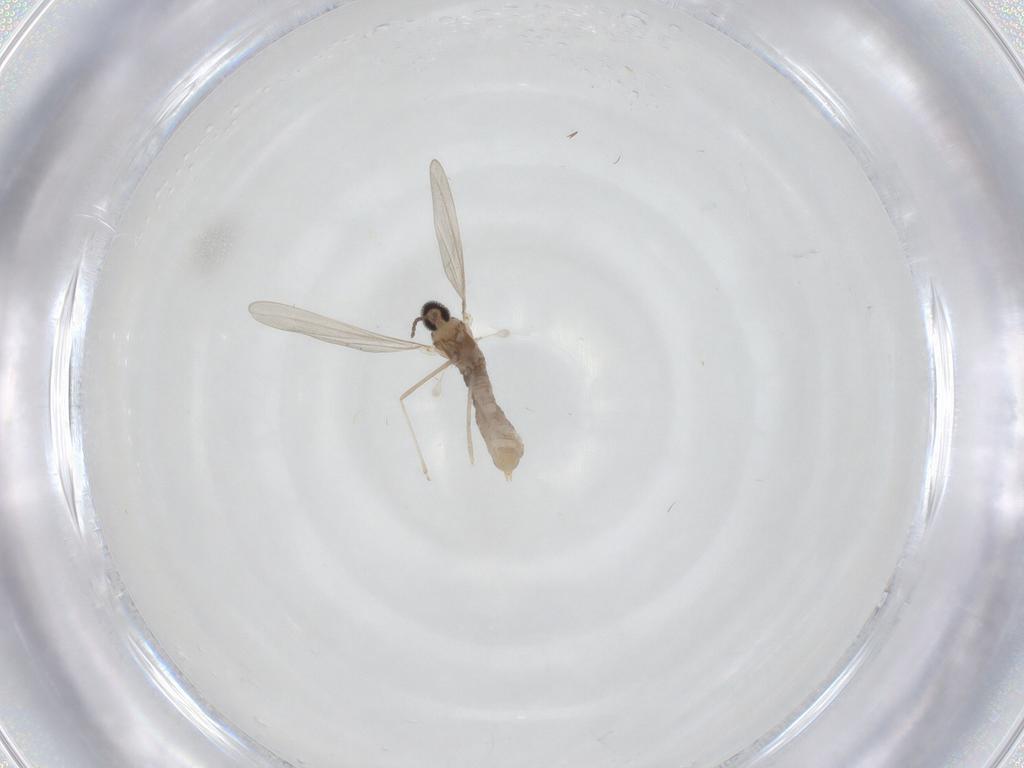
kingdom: Animalia
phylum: Arthropoda
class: Insecta
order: Diptera
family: Cecidomyiidae
